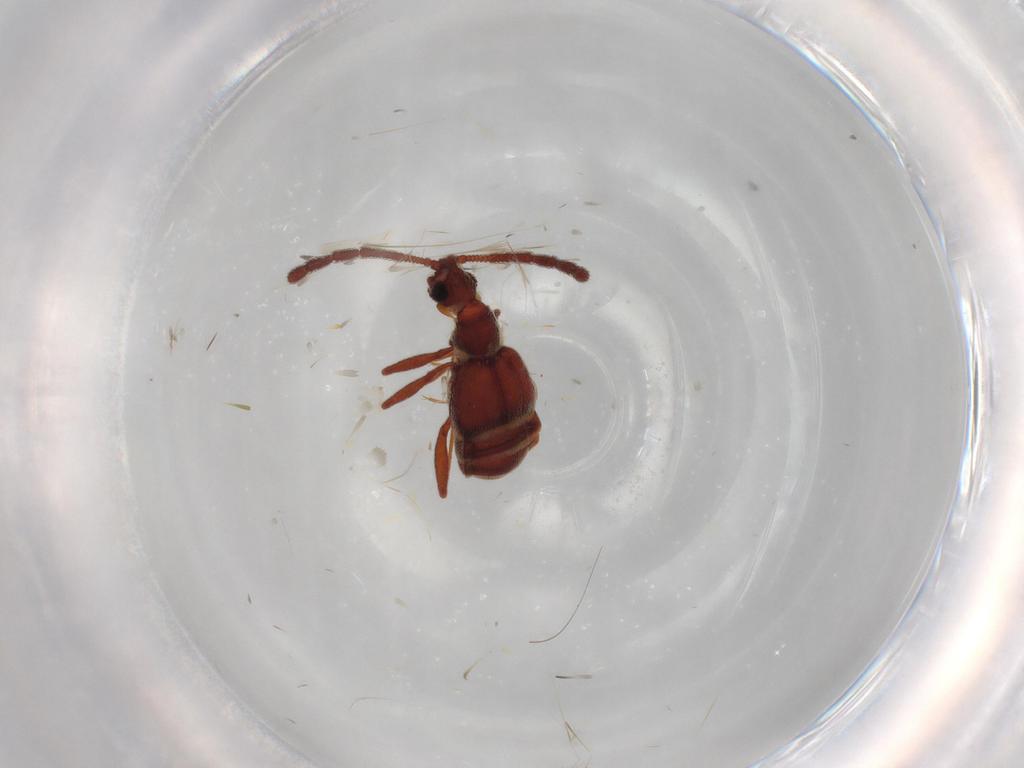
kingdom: Animalia
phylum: Arthropoda
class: Insecta
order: Coleoptera
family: Staphylinidae
